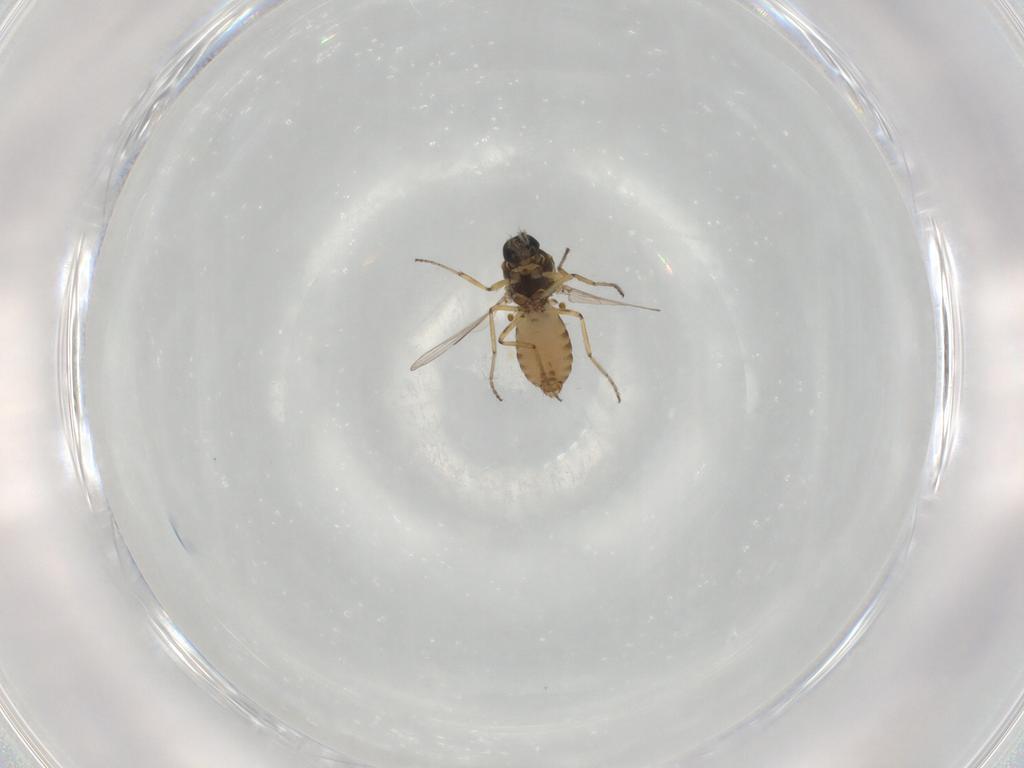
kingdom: Animalia
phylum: Arthropoda
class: Insecta
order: Diptera
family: Ceratopogonidae
